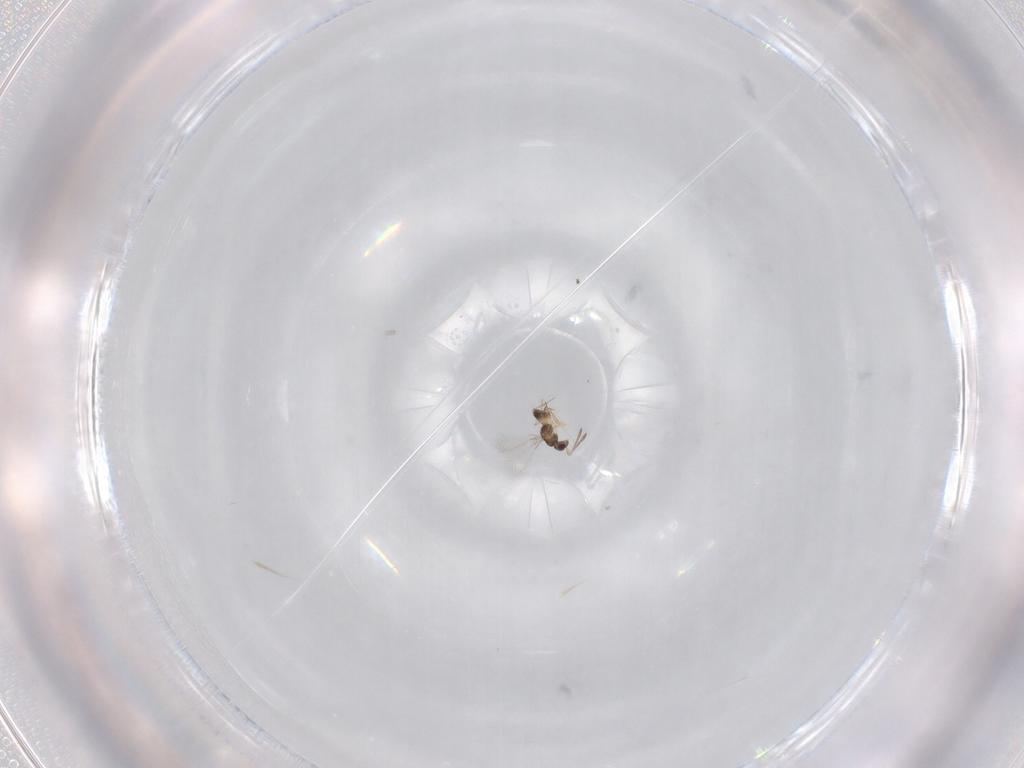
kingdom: Animalia
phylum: Arthropoda
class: Insecta
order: Hymenoptera
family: Mymaridae
